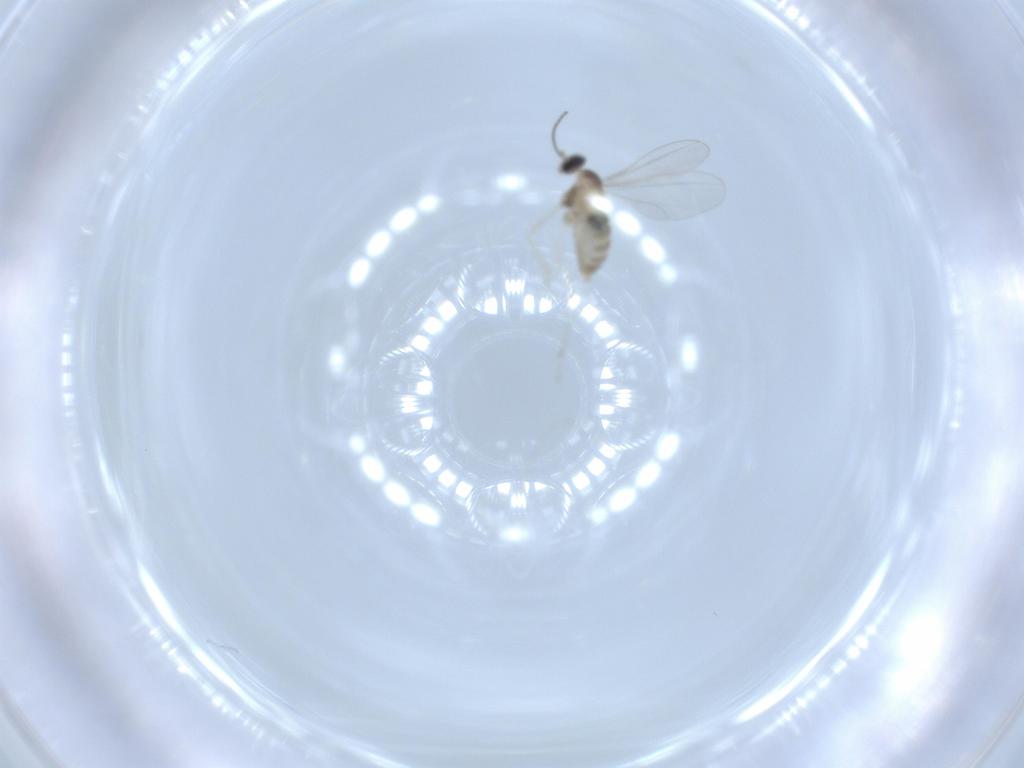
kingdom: Animalia
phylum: Arthropoda
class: Insecta
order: Diptera
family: Cecidomyiidae
